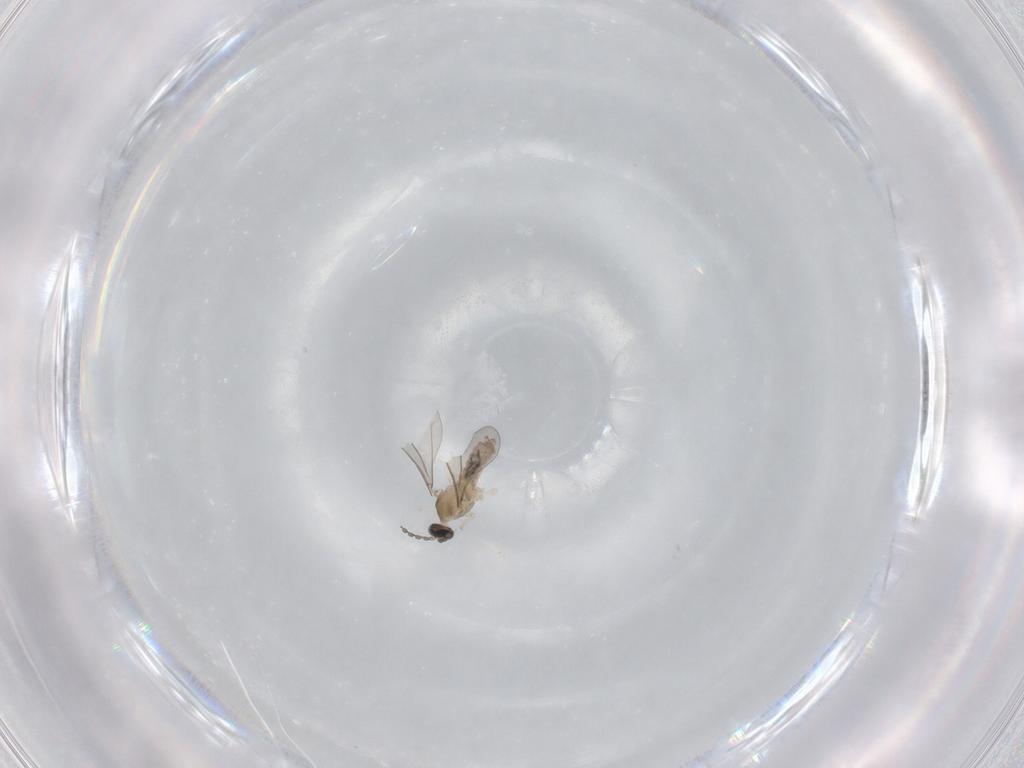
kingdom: Animalia
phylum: Arthropoda
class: Insecta
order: Diptera
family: Cecidomyiidae
